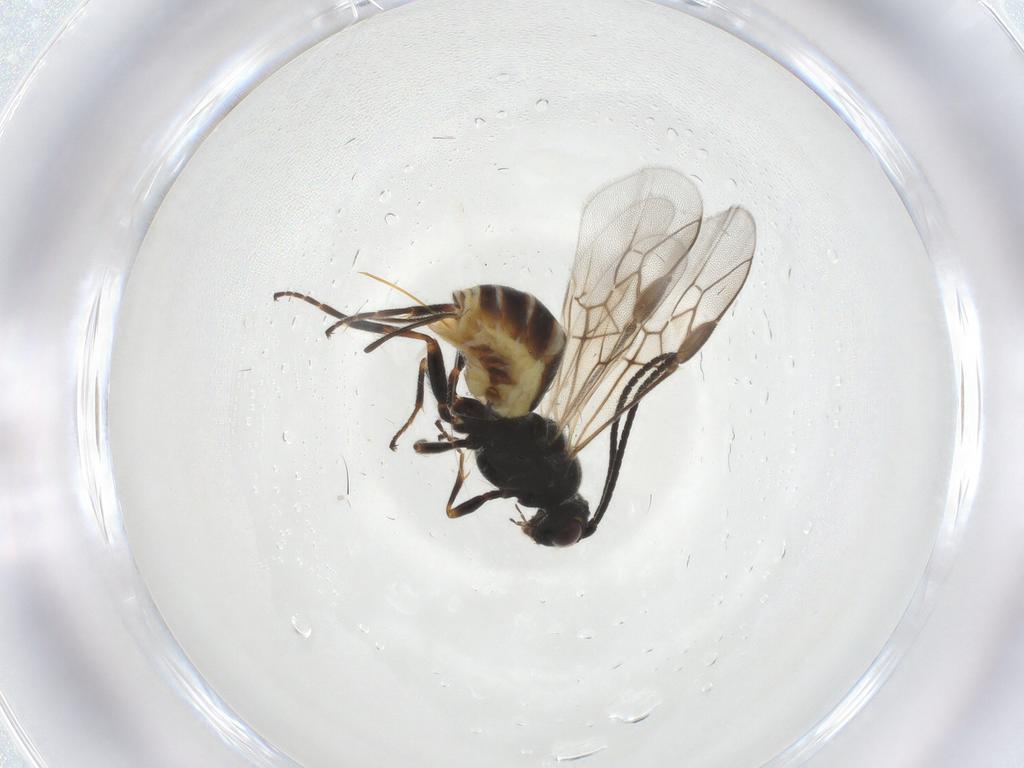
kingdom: Animalia
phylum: Arthropoda
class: Insecta
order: Hymenoptera
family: Braconidae
